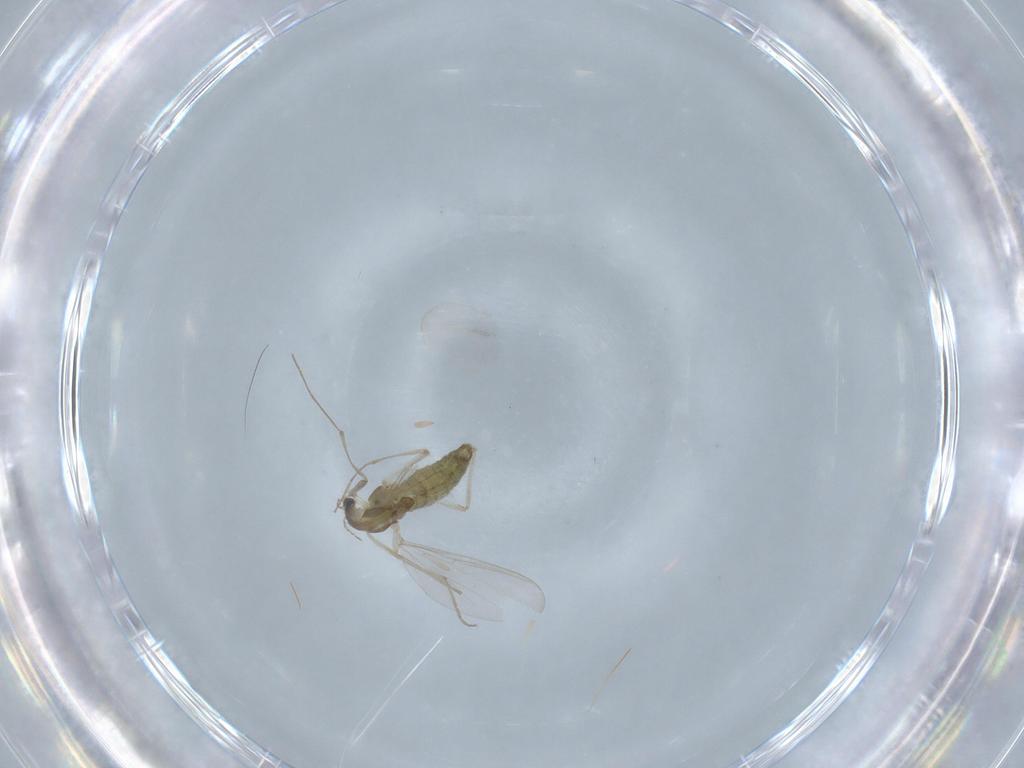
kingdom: Animalia
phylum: Arthropoda
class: Insecta
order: Diptera
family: Chironomidae
